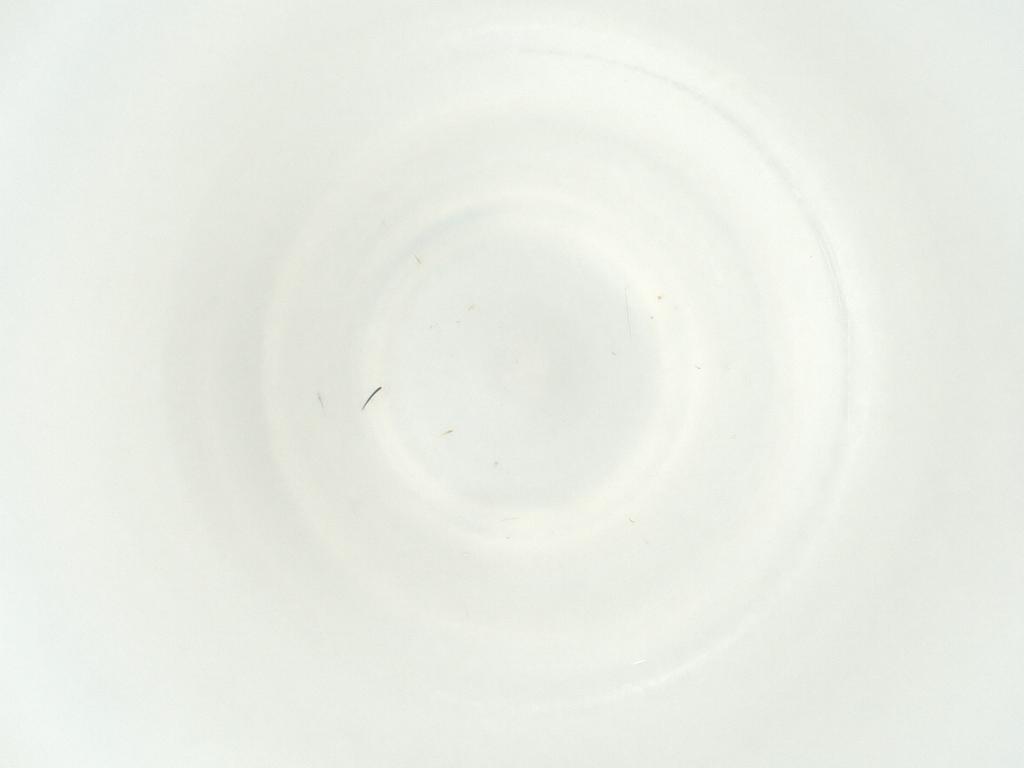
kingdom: Animalia
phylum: Arthropoda
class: Insecta
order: Diptera
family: Sciaridae
